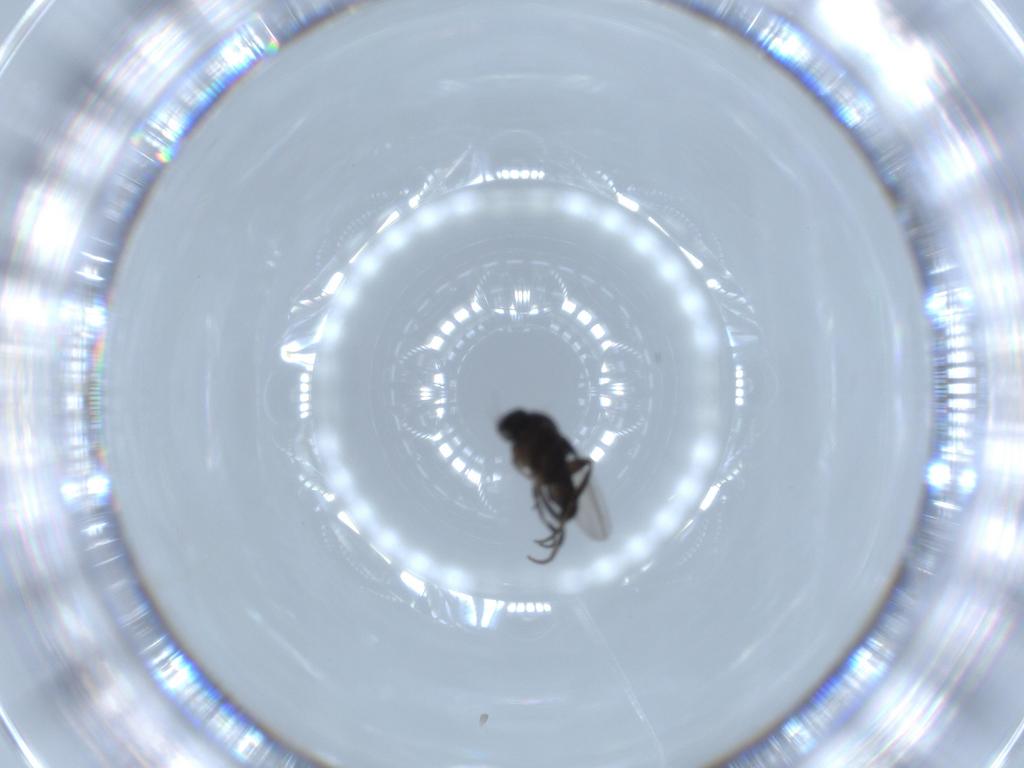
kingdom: Animalia
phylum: Arthropoda
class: Insecta
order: Diptera
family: Phoridae
